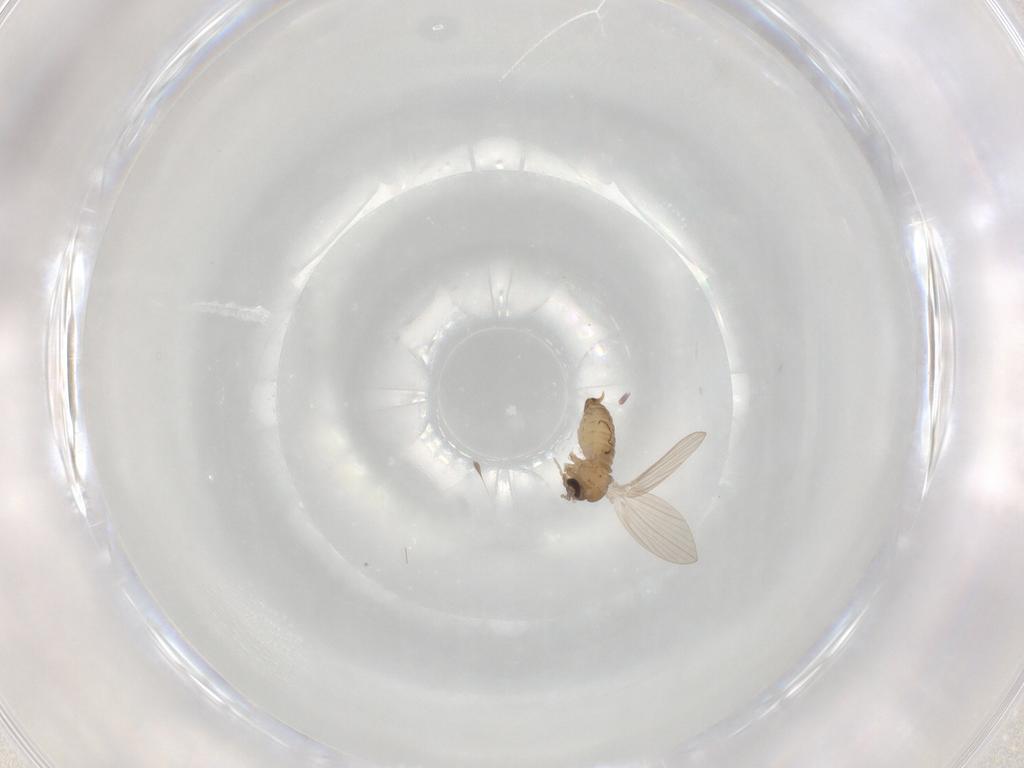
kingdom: Animalia
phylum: Arthropoda
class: Insecta
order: Diptera
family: Psychodidae
